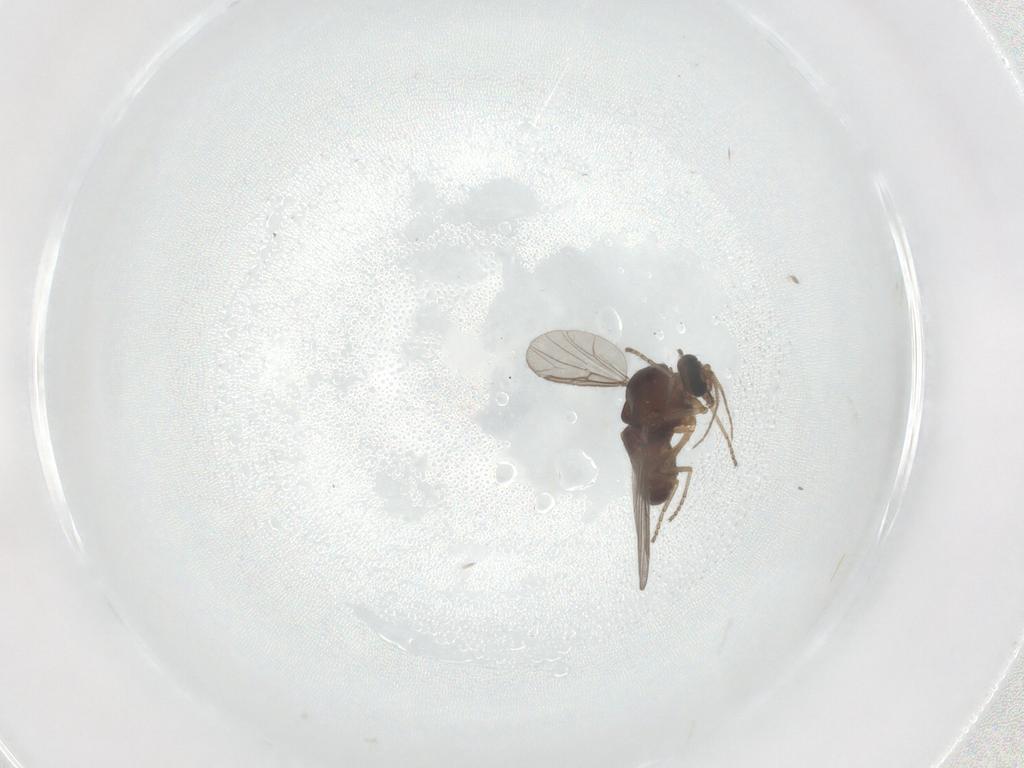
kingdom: Animalia
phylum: Arthropoda
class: Insecta
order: Diptera
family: Ceratopogonidae
